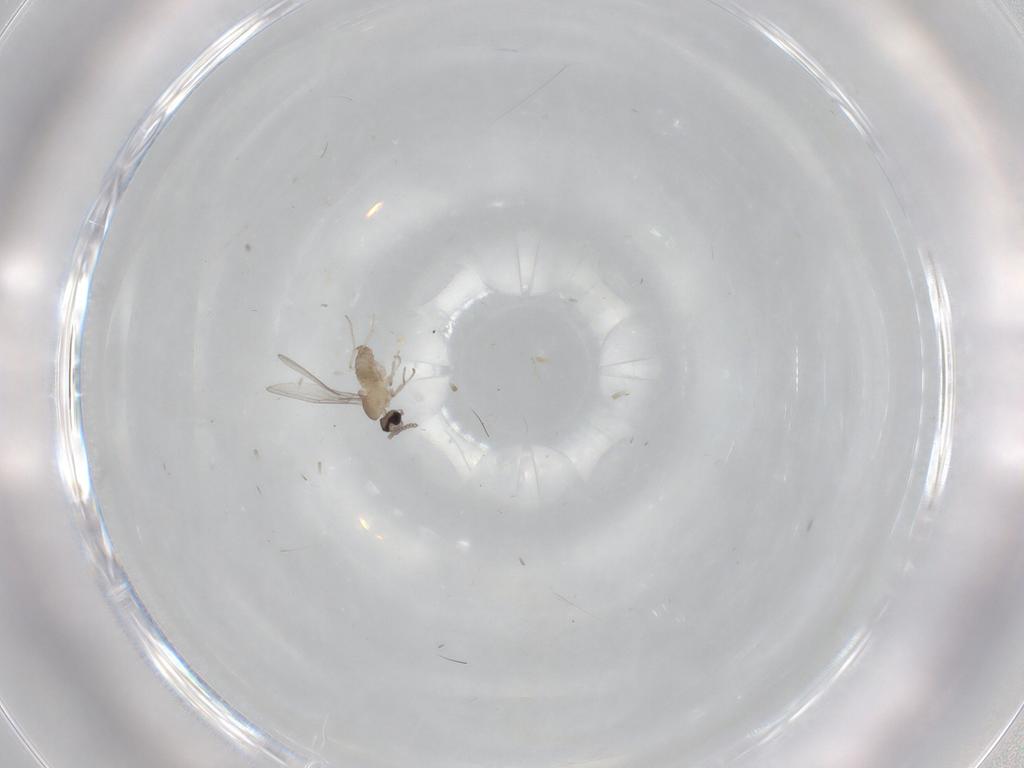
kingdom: Animalia
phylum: Arthropoda
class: Insecta
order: Diptera
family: Cecidomyiidae
